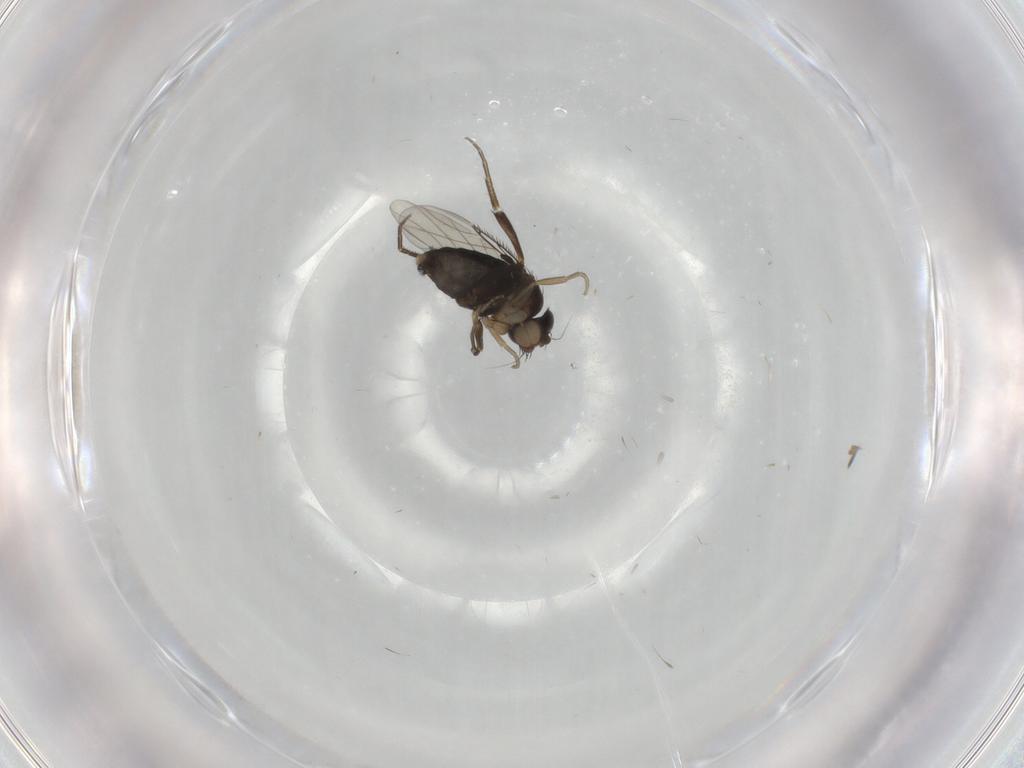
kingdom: Animalia
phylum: Arthropoda
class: Insecta
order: Diptera
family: Phoridae
